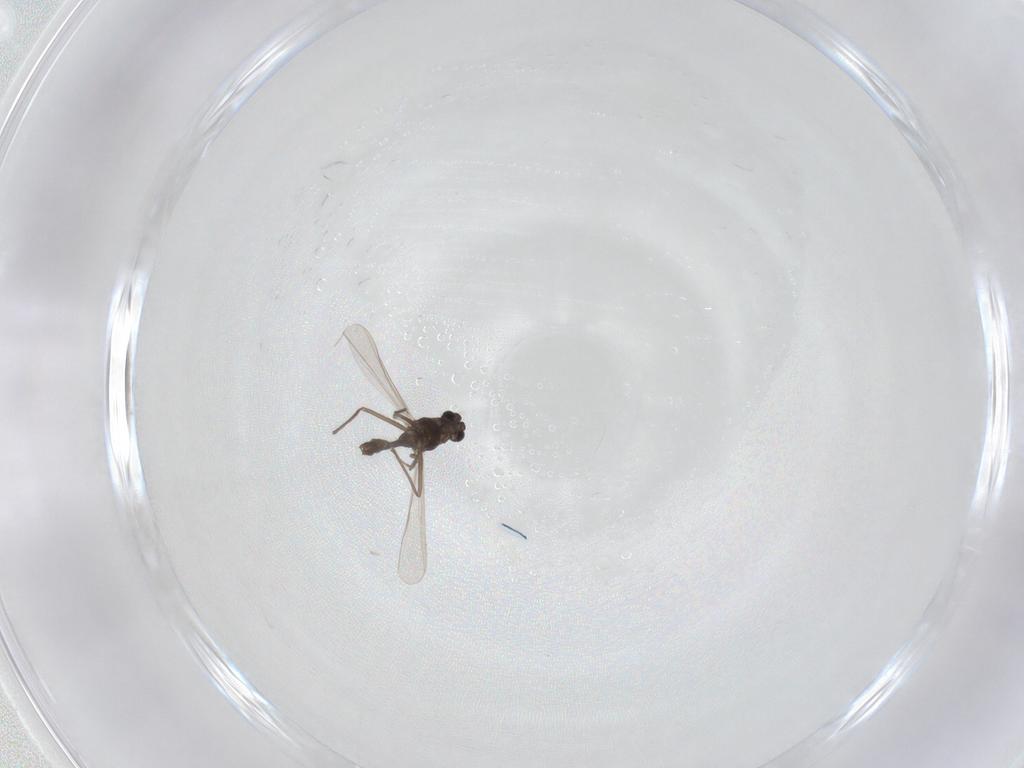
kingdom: Animalia
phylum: Arthropoda
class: Insecta
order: Diptera
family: Chironomidae
